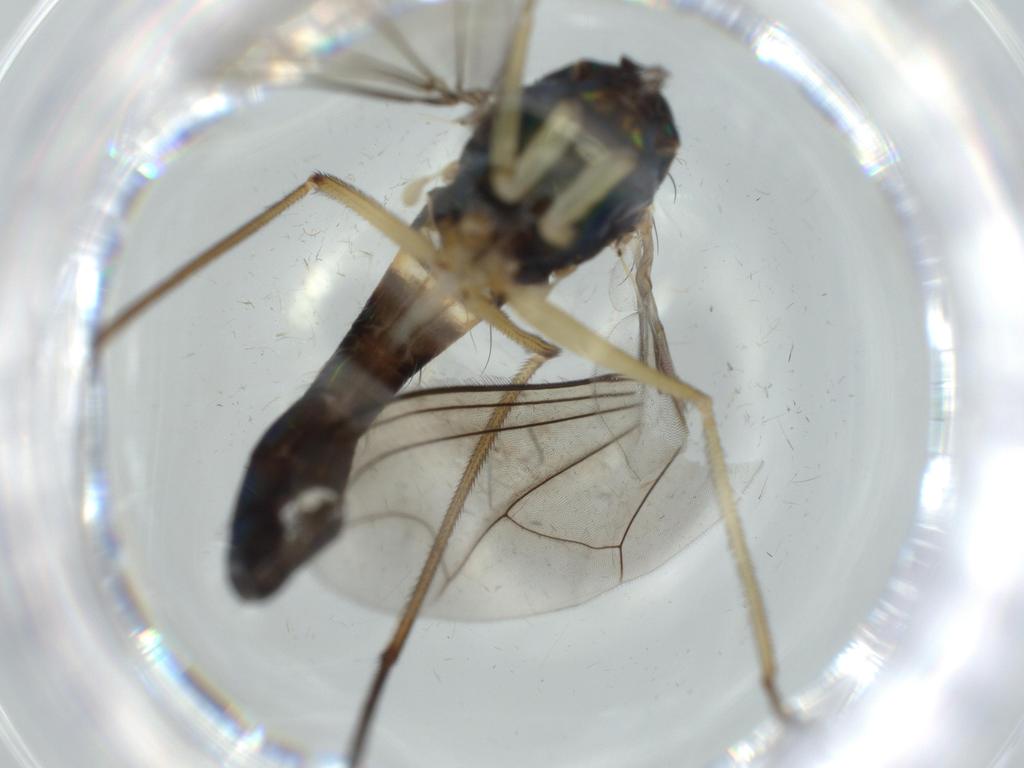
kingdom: Animalia
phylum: Arthropoda
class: Insecta
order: Diptera
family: Dolichopodidae
